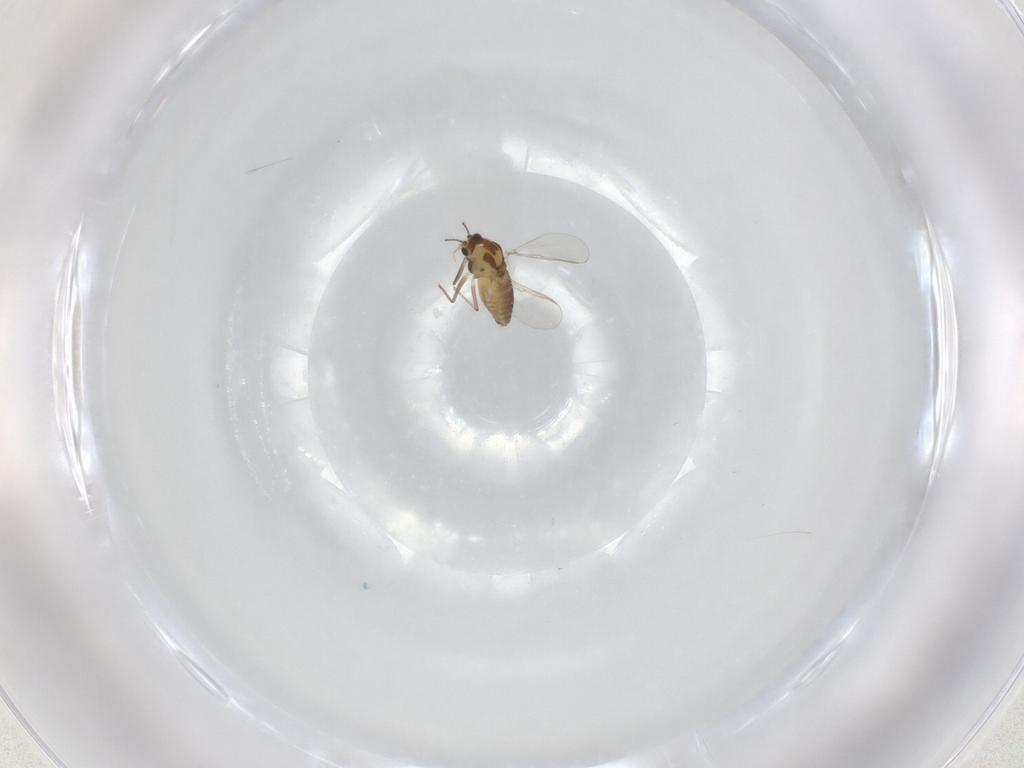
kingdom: Animalia
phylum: Arthropoda
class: Insecta
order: Diptera
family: Chironomidae
